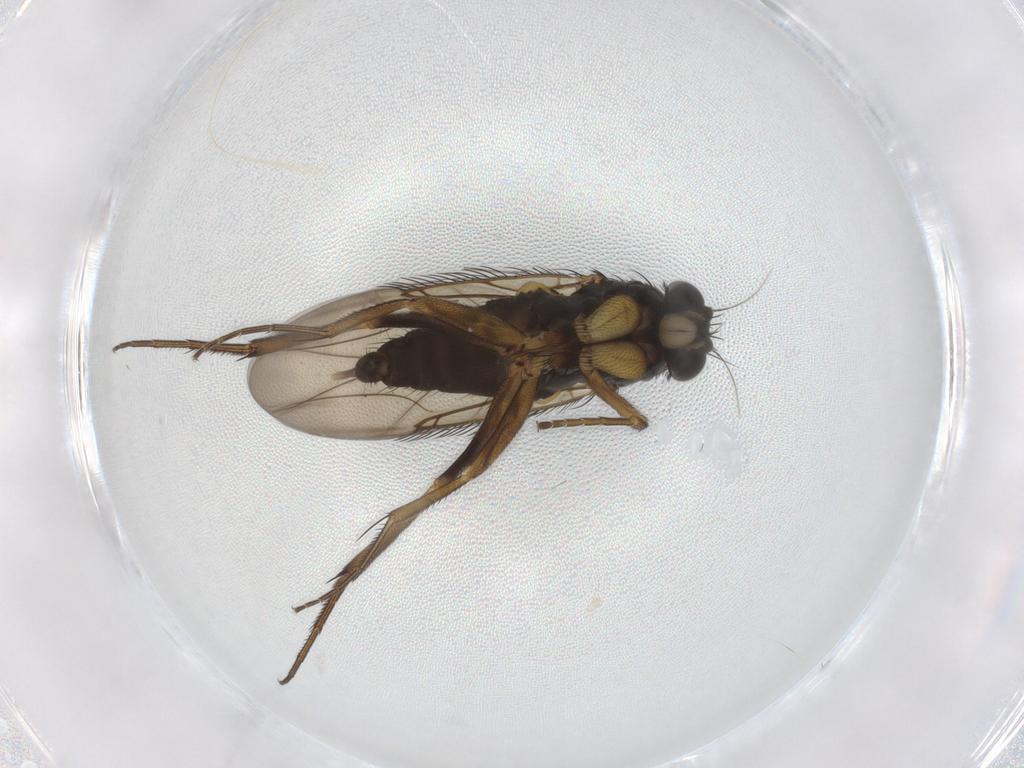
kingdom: Animalia
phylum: Arthropoda
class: Insecta
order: Diptera
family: Phoridae
